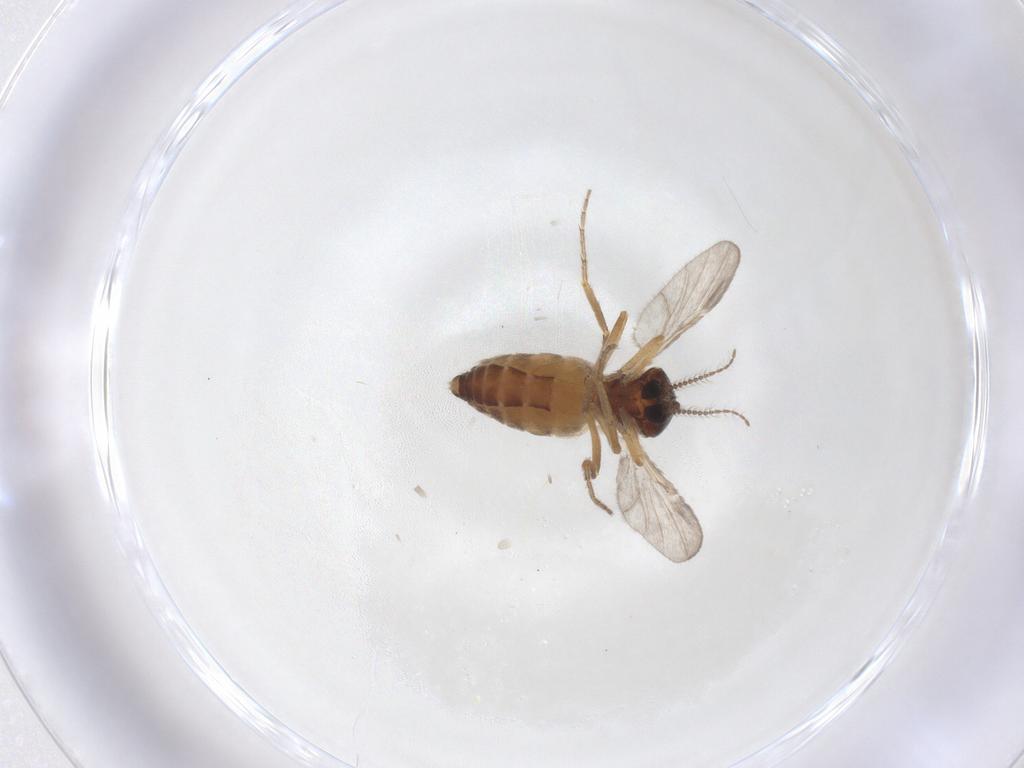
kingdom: Animalia
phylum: Arthropoda
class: Insecta
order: Diptera
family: Ceratopogonidae
